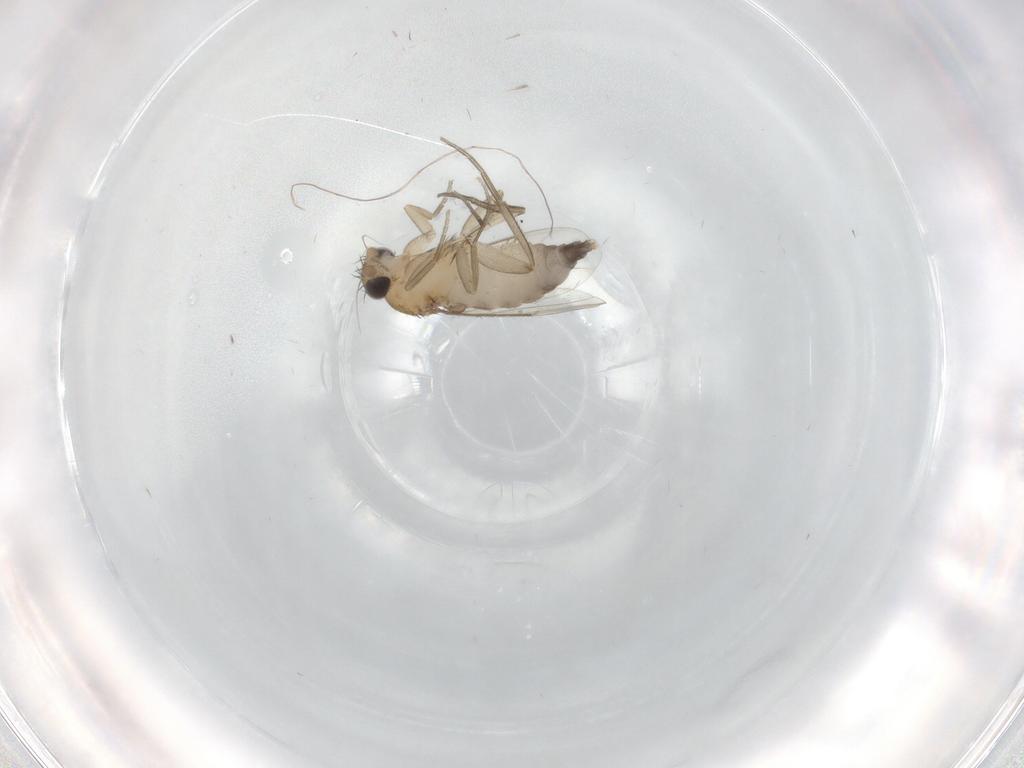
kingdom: Animalia
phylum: Arthropoda
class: Insecta
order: Diptera
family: Phoridae
